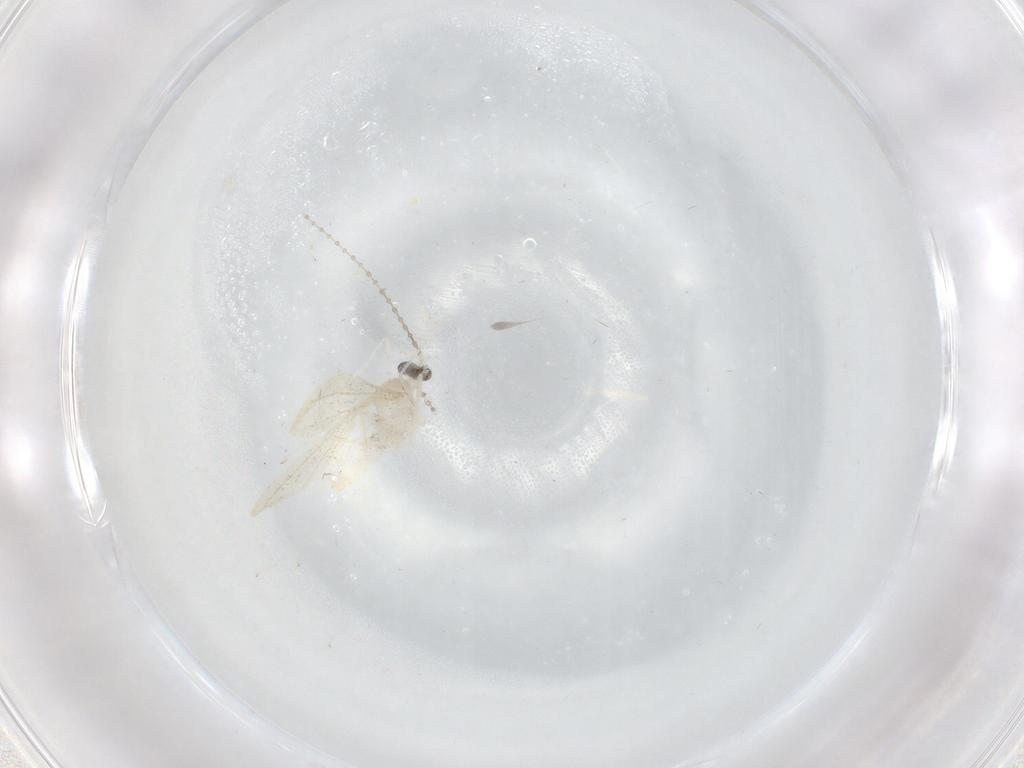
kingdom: Animalia
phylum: Arthropoda
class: Insecta
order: Diptera
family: Cecidomyiidae
